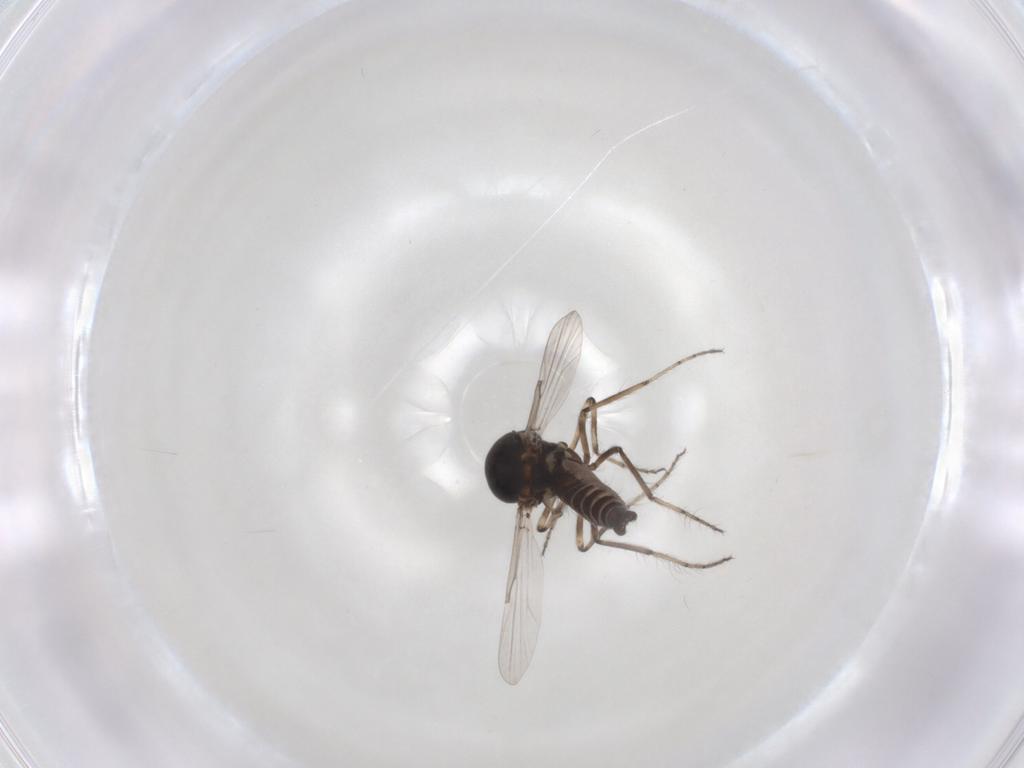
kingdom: Animalia
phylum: Arthropoda
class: Insecta
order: Diptera
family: Ceratopogonidae
